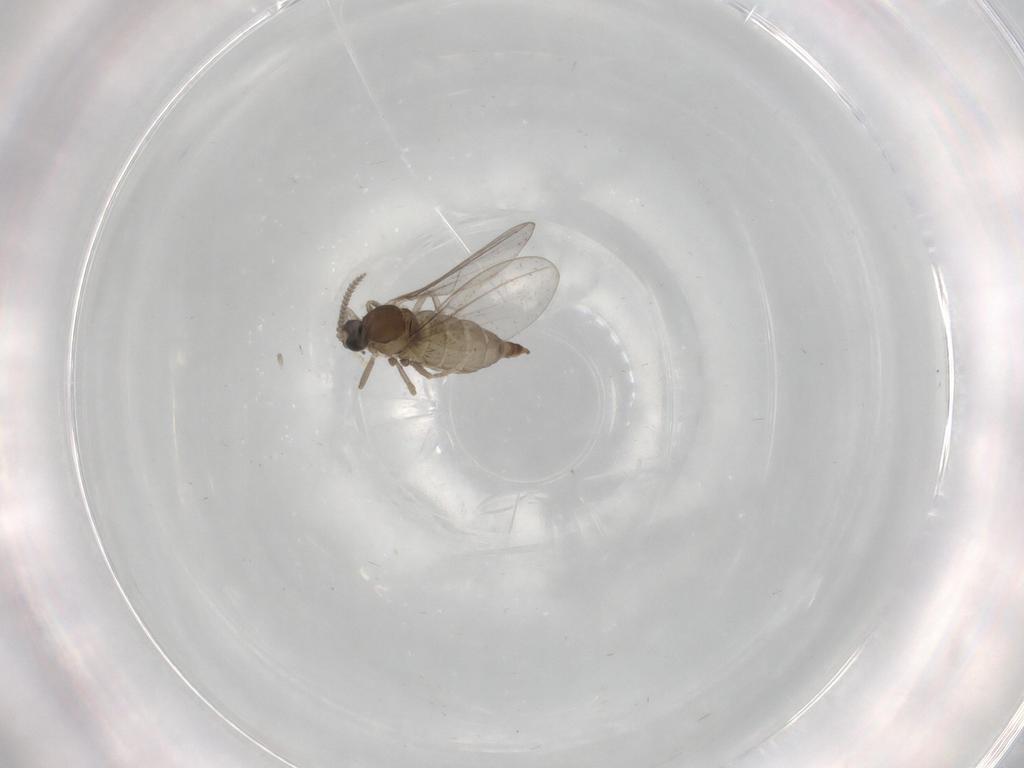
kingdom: Animalia
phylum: Arthropoda
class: Insecta
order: Diptera
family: Cecidomyiidae
